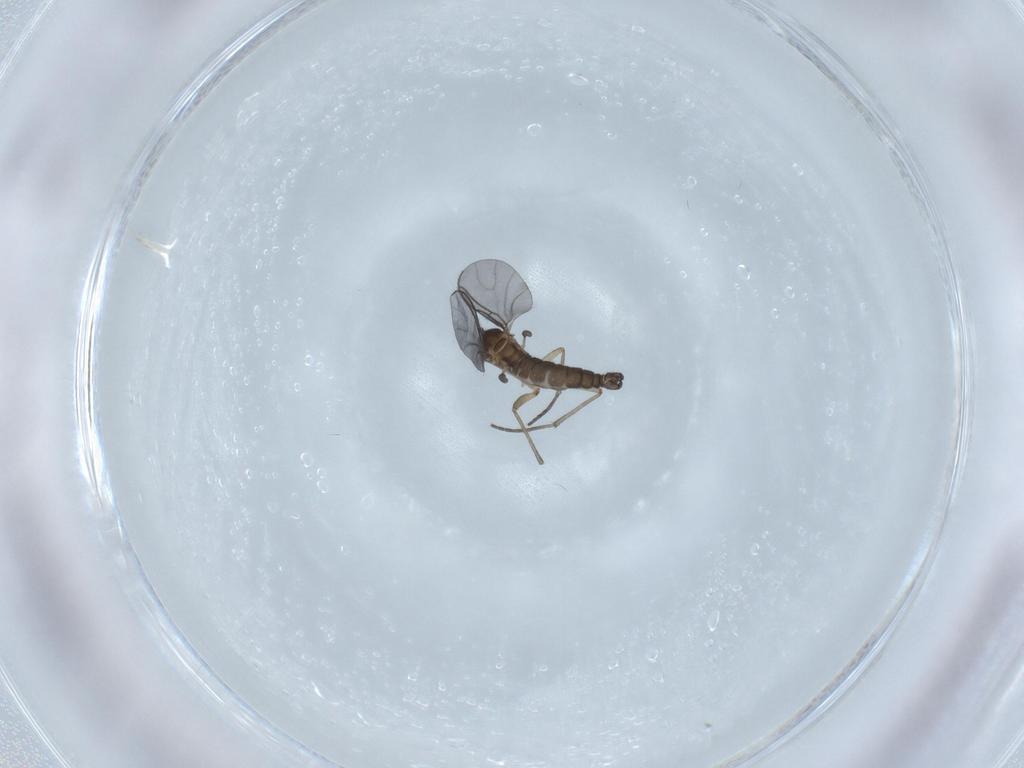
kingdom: Animalia
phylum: Arthropoda
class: Insecta
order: Diptera
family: Sciaridae
